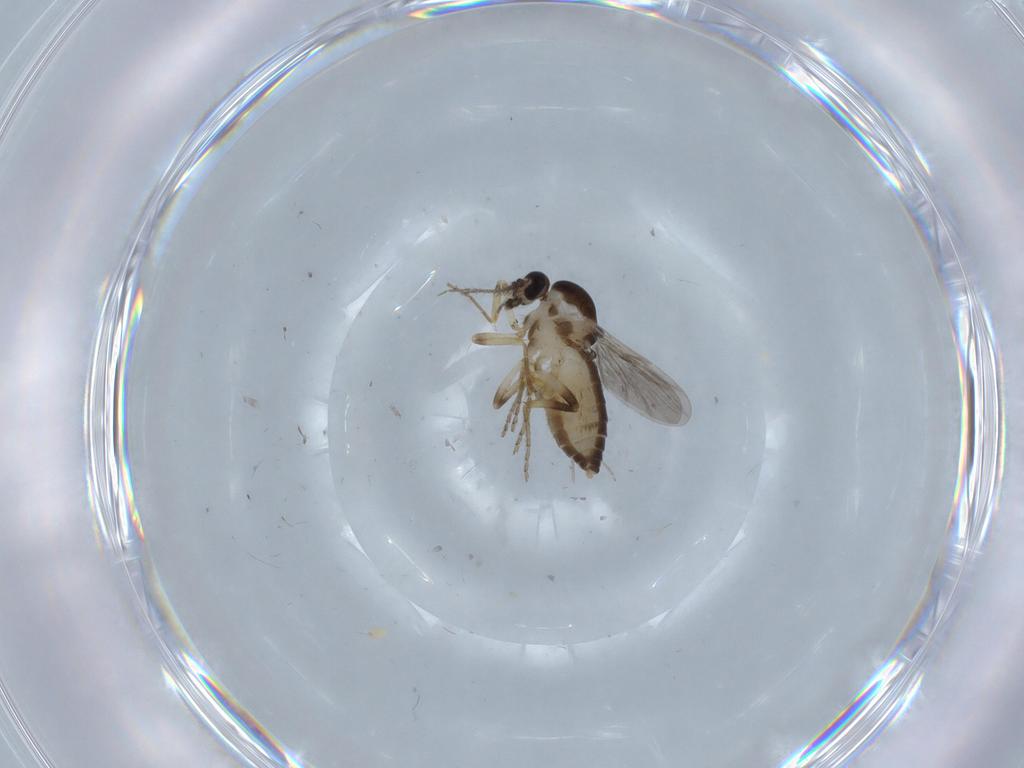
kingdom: Animalia
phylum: Arthropoda
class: Insecta
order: Diptera
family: Ceratopogonidae
